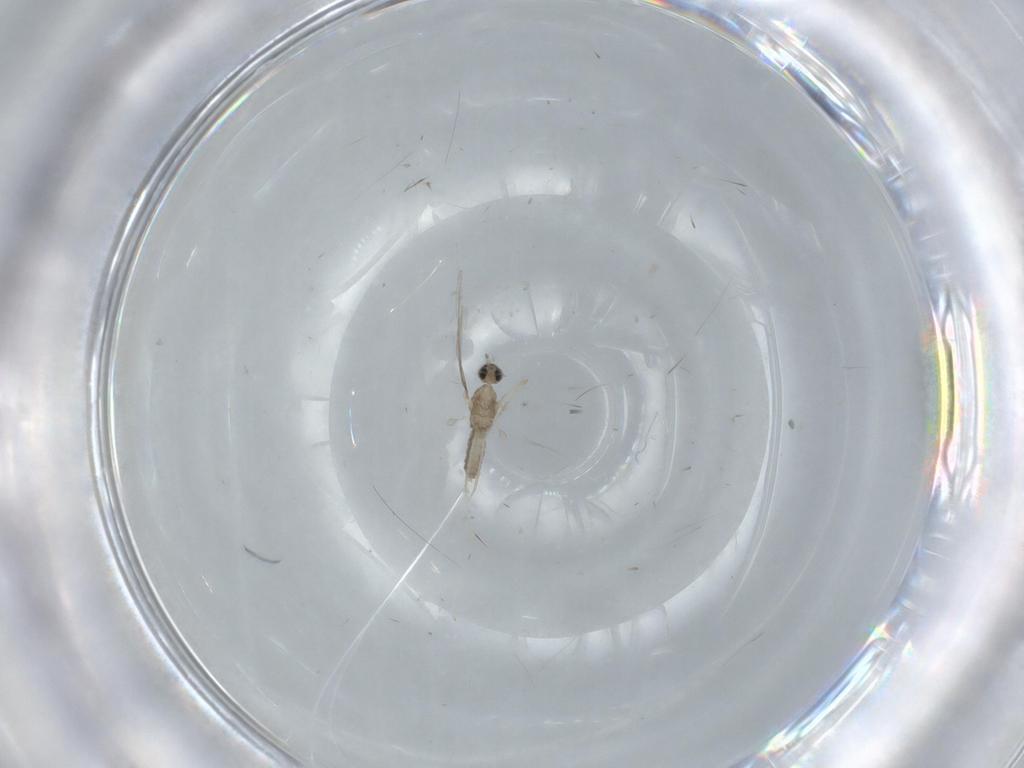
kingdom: Animalia
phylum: Arthropoda
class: Insecta
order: Diptera
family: Cecidomyiidae
